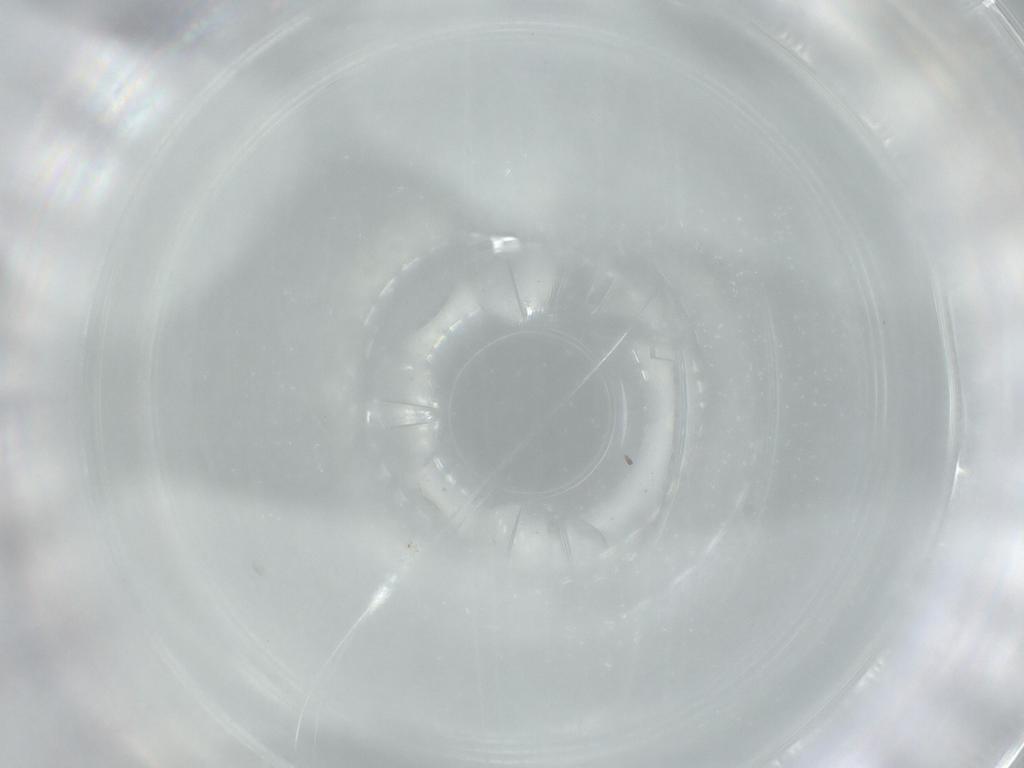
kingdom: Animalia
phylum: Arthropoda
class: Insecta
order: Hymenoptera
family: Scelionidae
